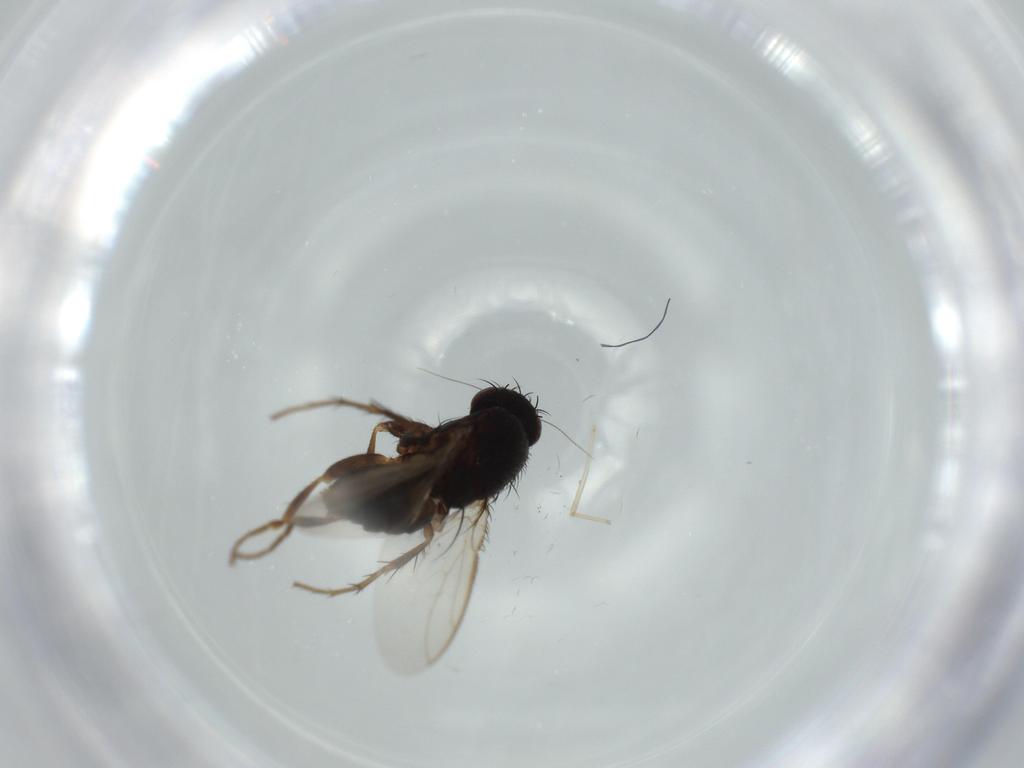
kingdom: Animalia
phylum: Arthropoda
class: Insecta
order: Diptera
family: Sphaeroceridae
